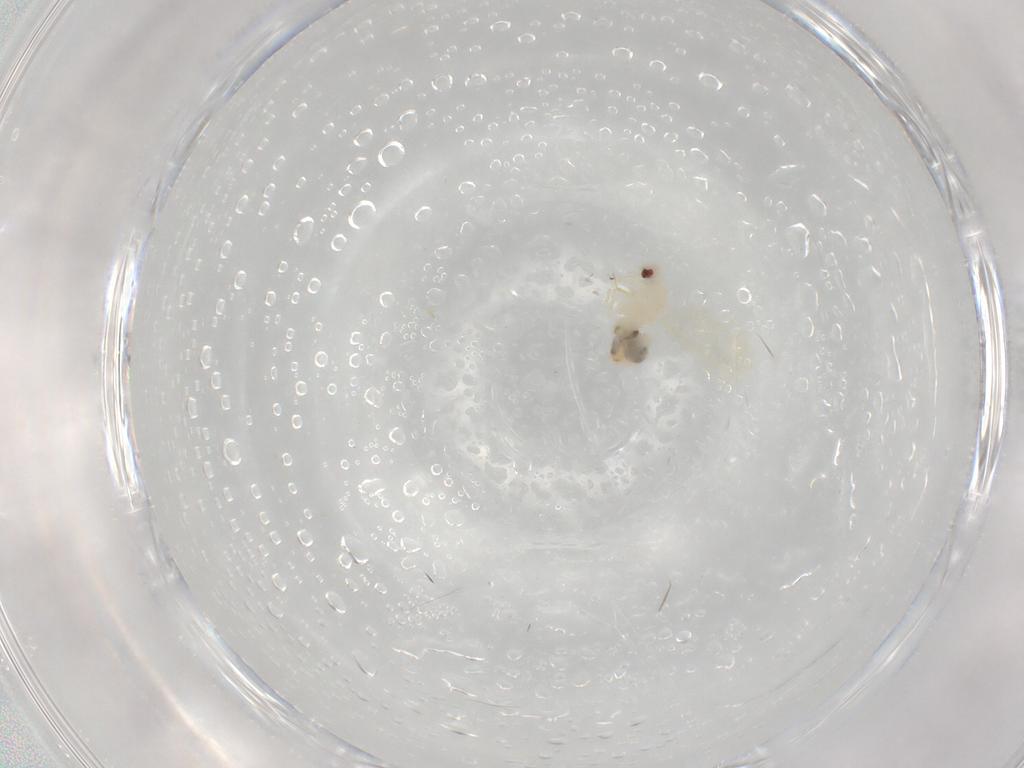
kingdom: Animalia
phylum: Arthropoda
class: Insecta
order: Hemiptera
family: Aleyrodidae
